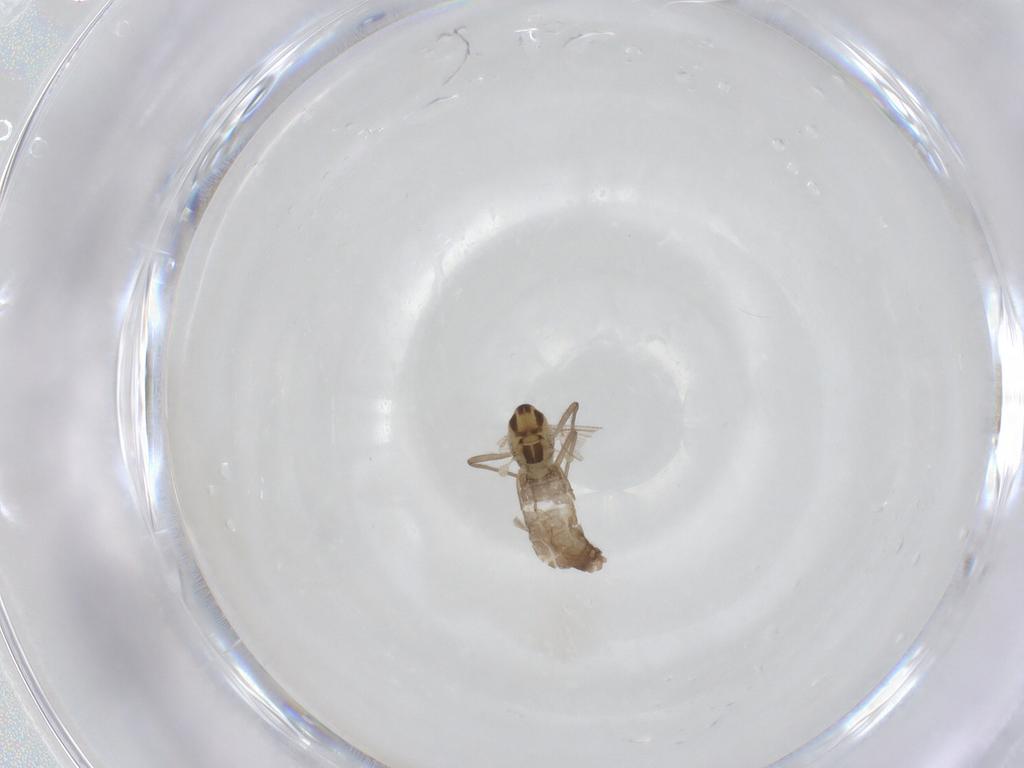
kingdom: Animalia
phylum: Arthropoda
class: Insecta
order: Diptera
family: Chironomidae
